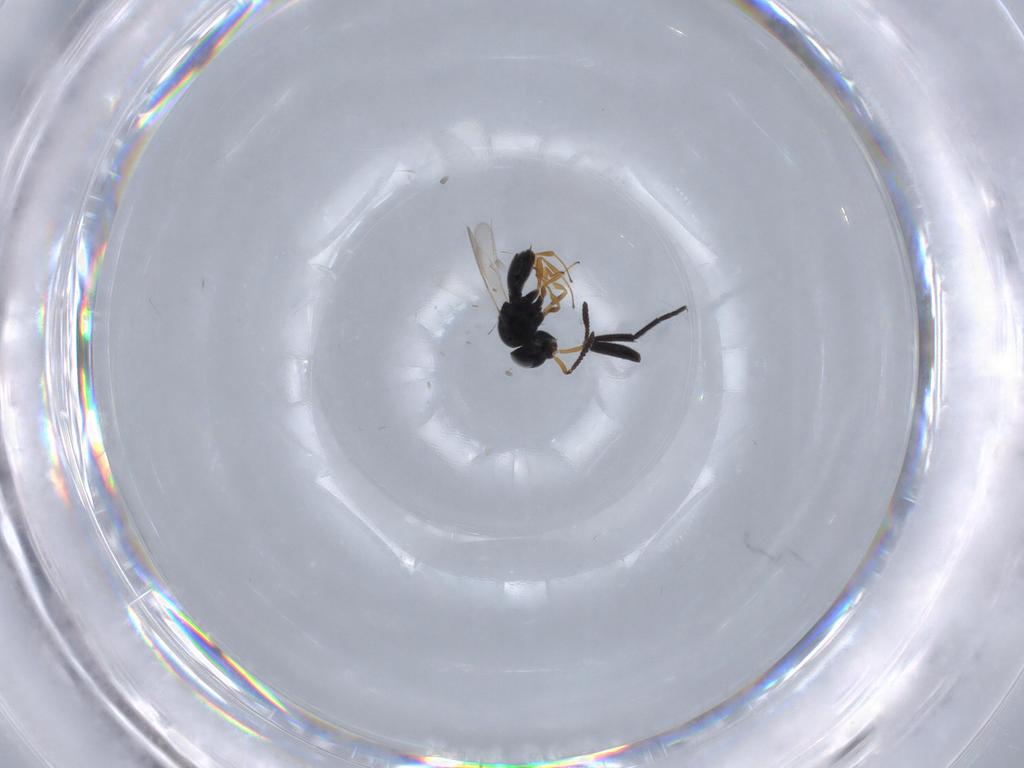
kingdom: Animalia
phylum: Arthropoda
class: Insecta
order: Hymenoptera
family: Scelionidae
